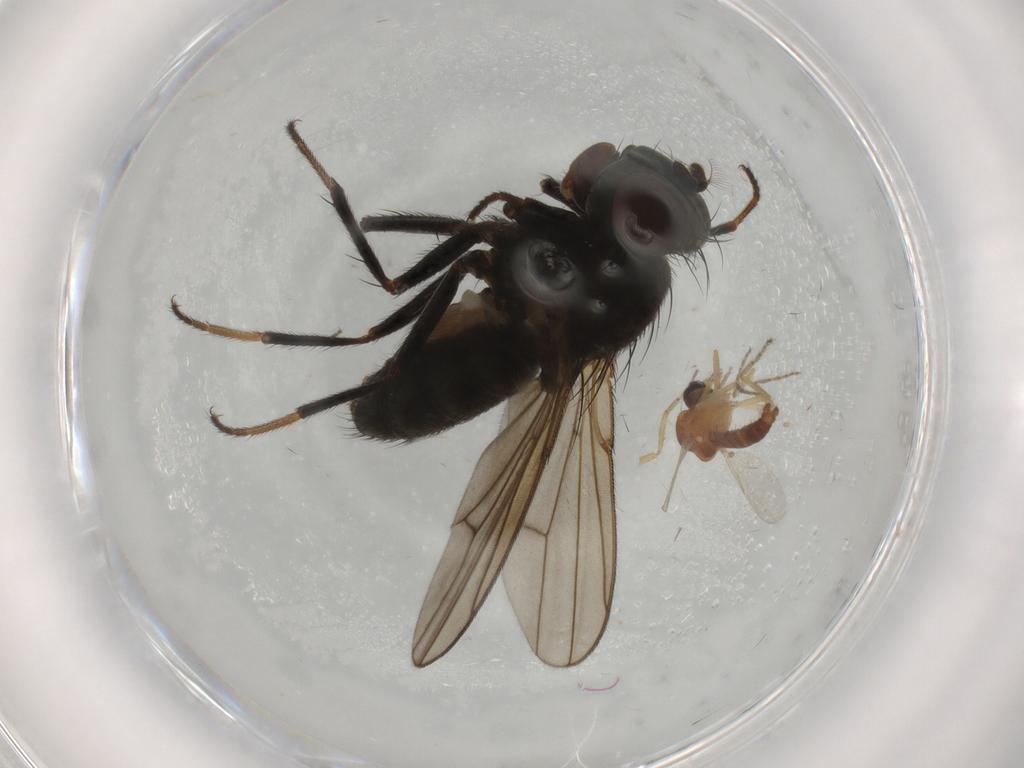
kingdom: Animalia
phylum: Arthropoda
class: Insecta
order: Diptera
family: Ephydridae
